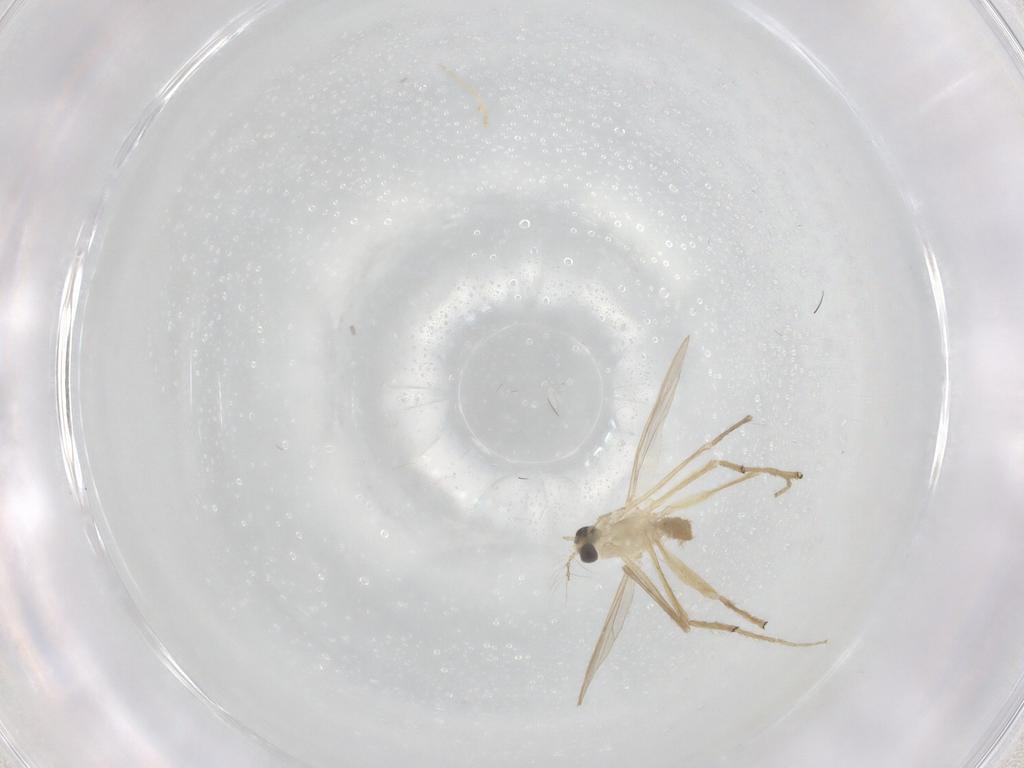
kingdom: Animalia
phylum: Arthropoda
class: Insecta
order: Diptera
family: Chironomidae
